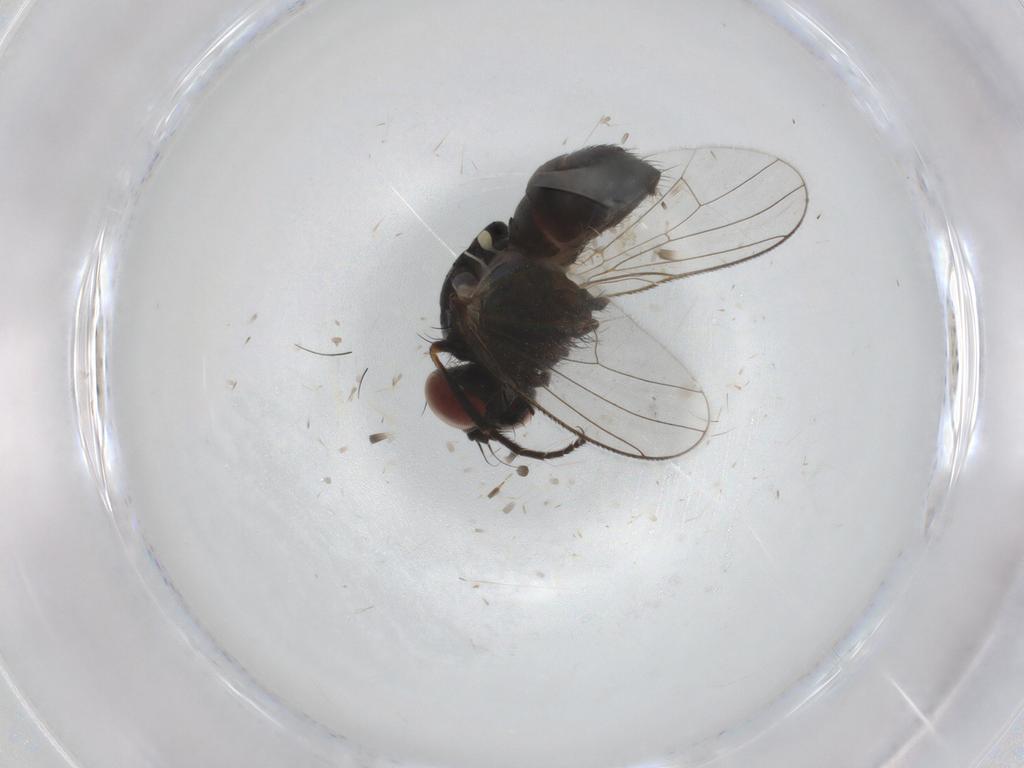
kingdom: Animalia
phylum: Arthropoda
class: Insecta
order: Diptera
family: Muscidae
